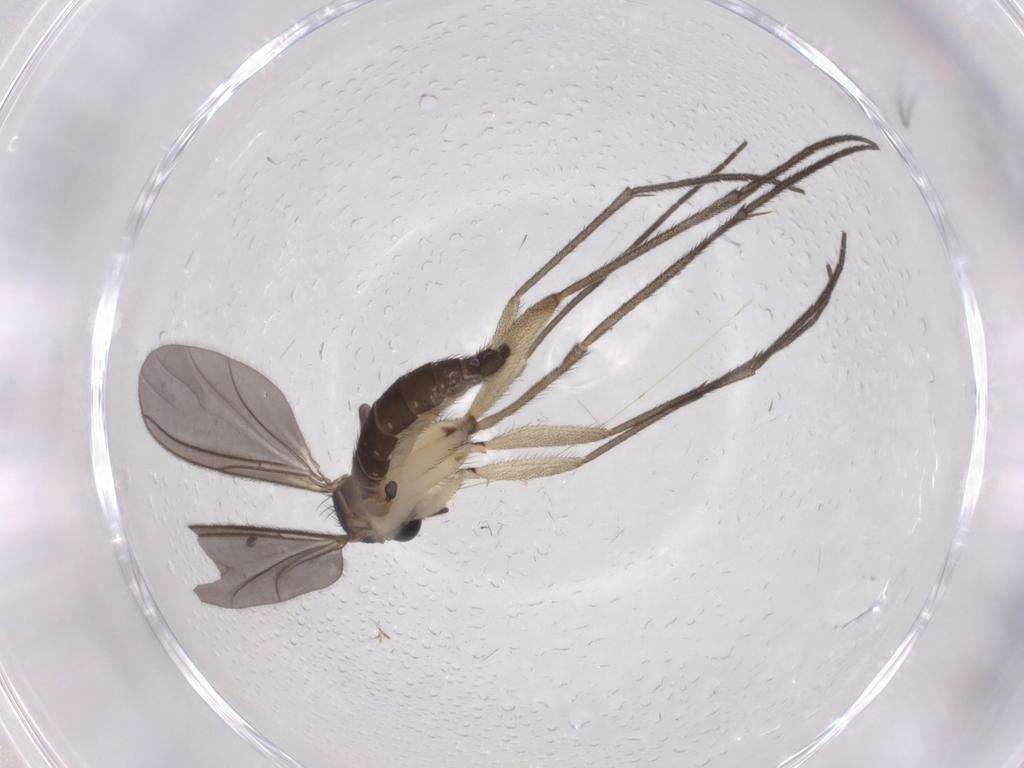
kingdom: Animalia
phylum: Arthropoda
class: Insecta
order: Diptera
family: Sciaridae
